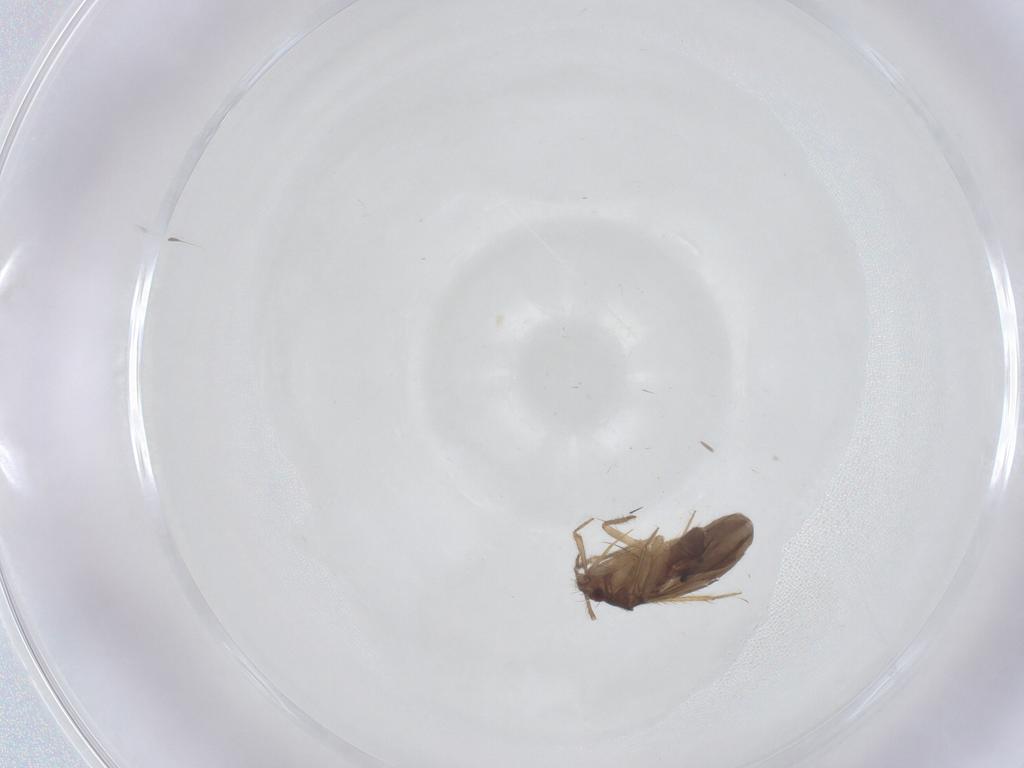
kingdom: Animalia
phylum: Arthropoda
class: Insecta
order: Hemiptera
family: Ceratocombidae
